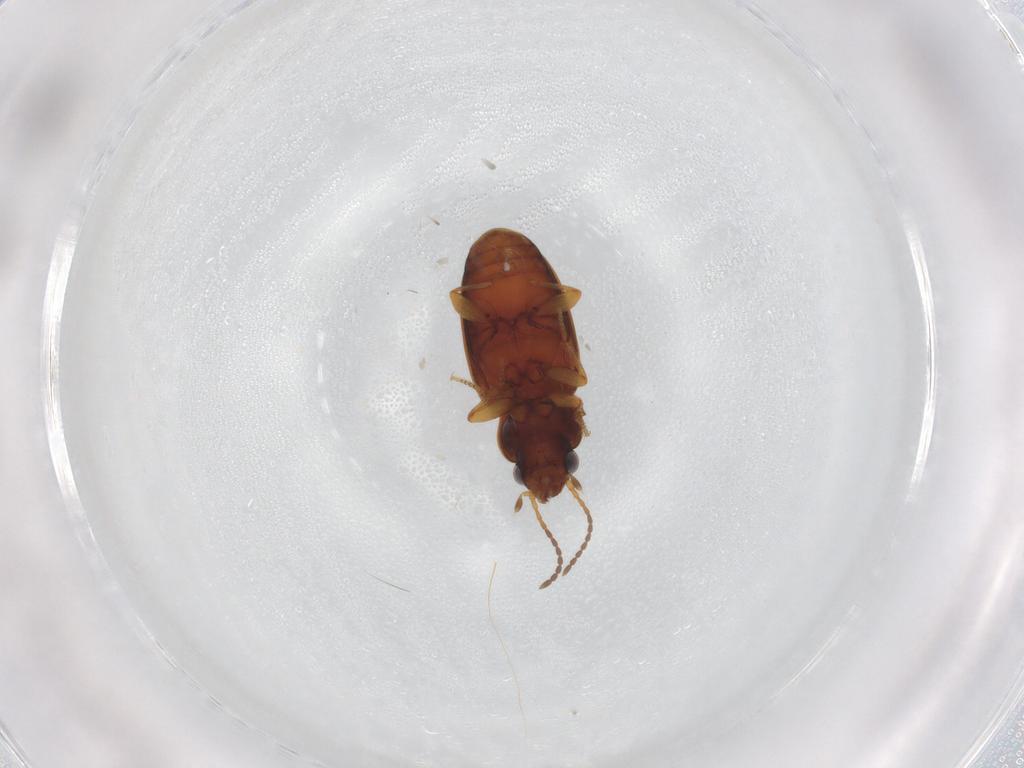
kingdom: Animalia
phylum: Arthropoda
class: Insecta
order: Coleoptera
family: Carabidae
